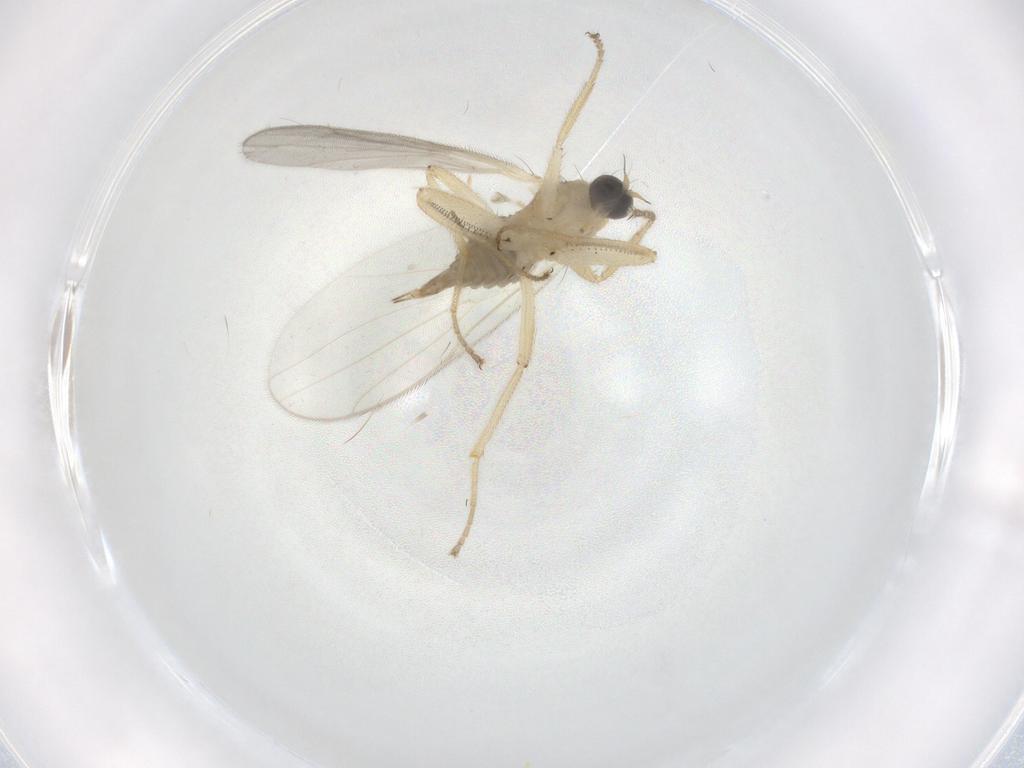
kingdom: Animalia
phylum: Arthropoda
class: Insecta
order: Diptera
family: Hybotidae
